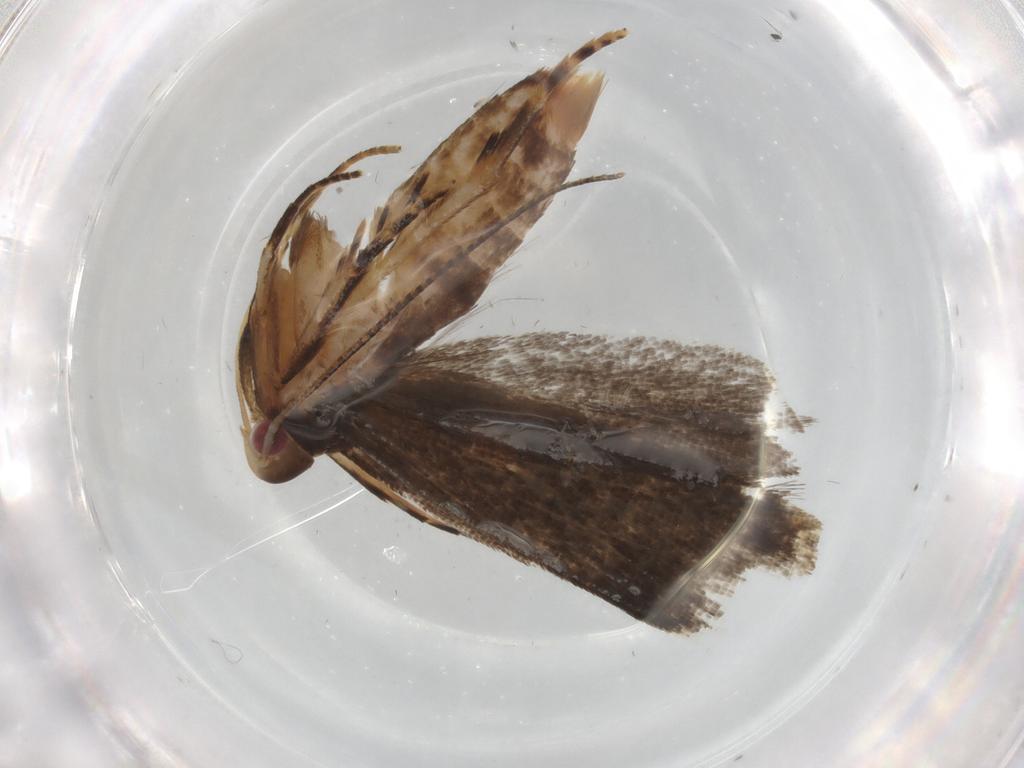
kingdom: Animalia
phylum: Arthropoda
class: Insecta
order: Lepidoptera
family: Gelechiidae
